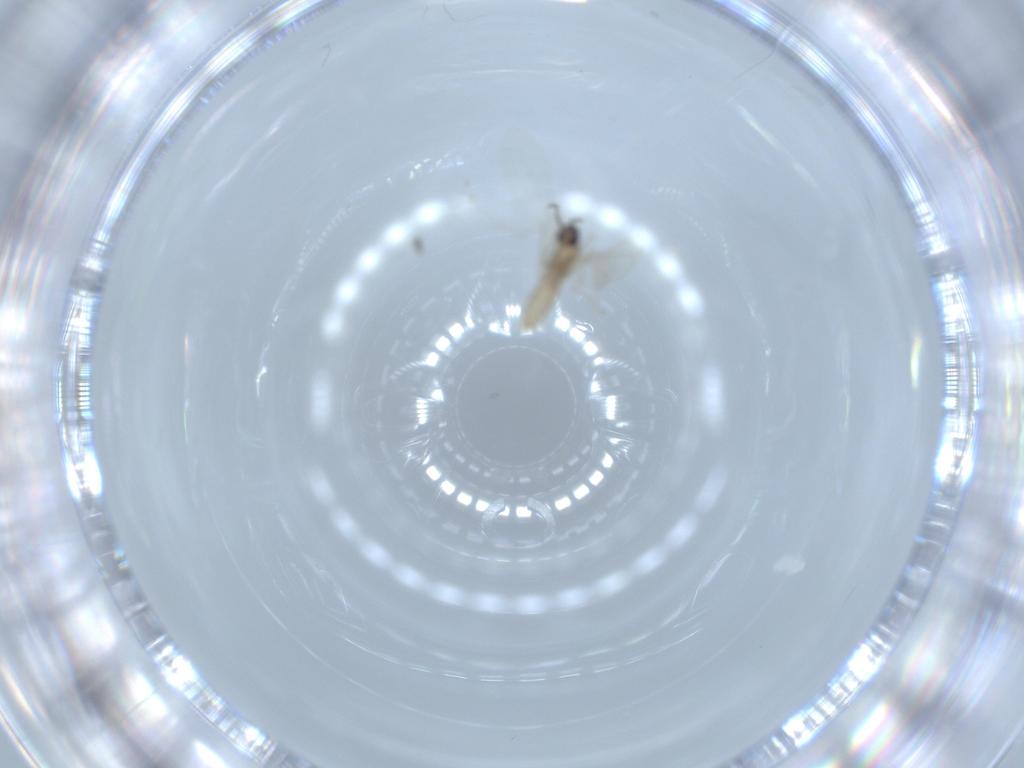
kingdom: Animalia
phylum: Arthropoda
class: Insecta
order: Diptera
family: Cecidomyiidae
